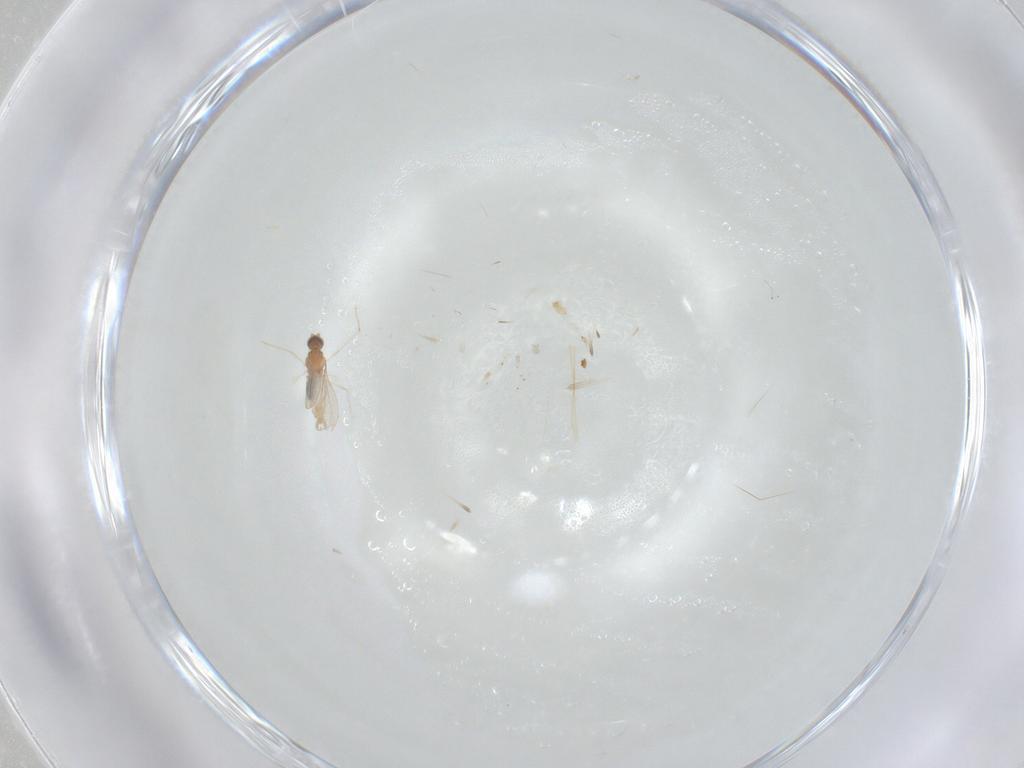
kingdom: Animalia
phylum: Arthropoda
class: Insecta
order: Diptera
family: Cecidomyiidae
